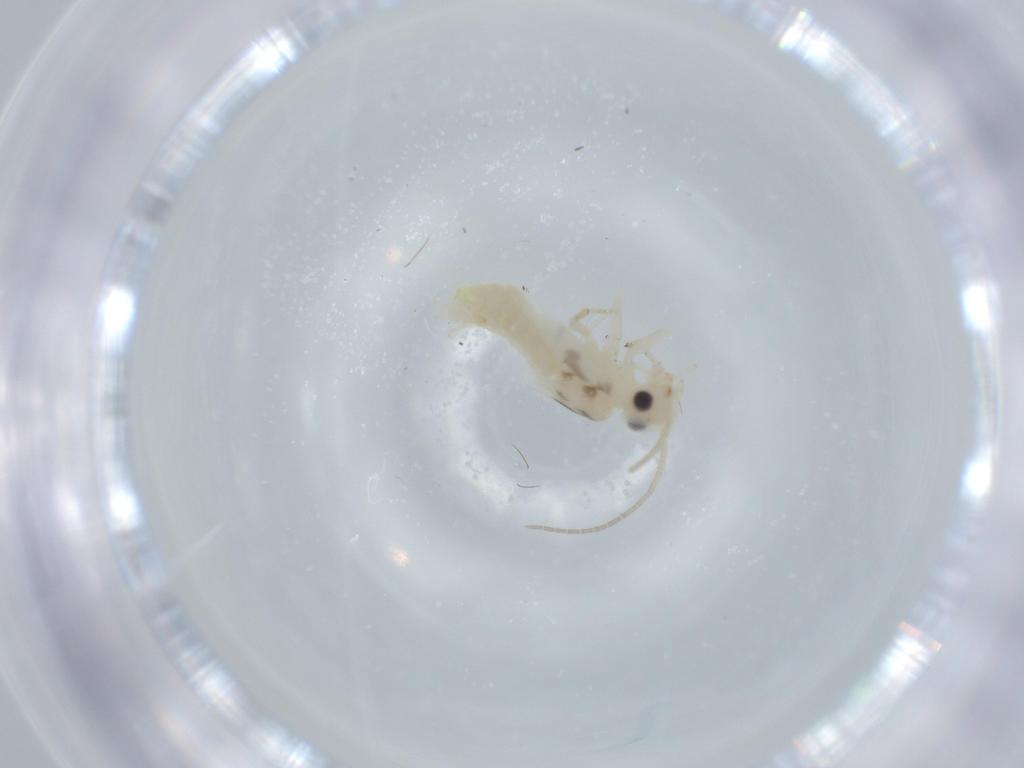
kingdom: Animalia
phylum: Arthropoda
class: Insecta
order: Psocodea
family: Caeciliusidae
